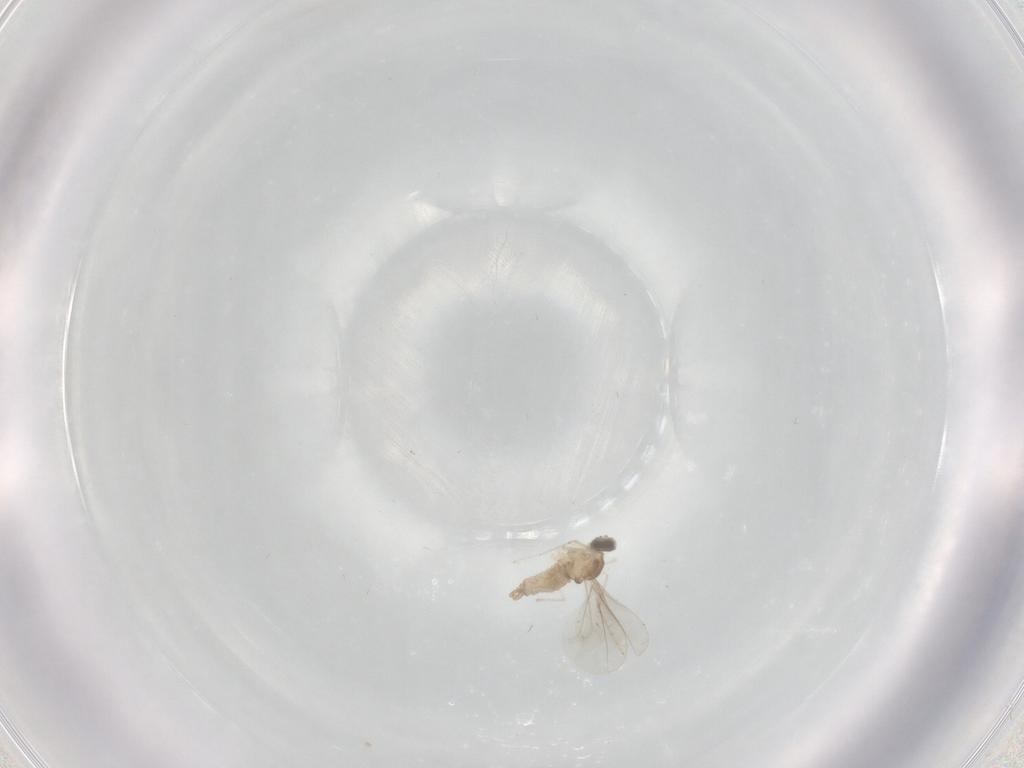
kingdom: Animalia
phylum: Arthropoda
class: Insecta
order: Diptera
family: Cecidomyiidae
